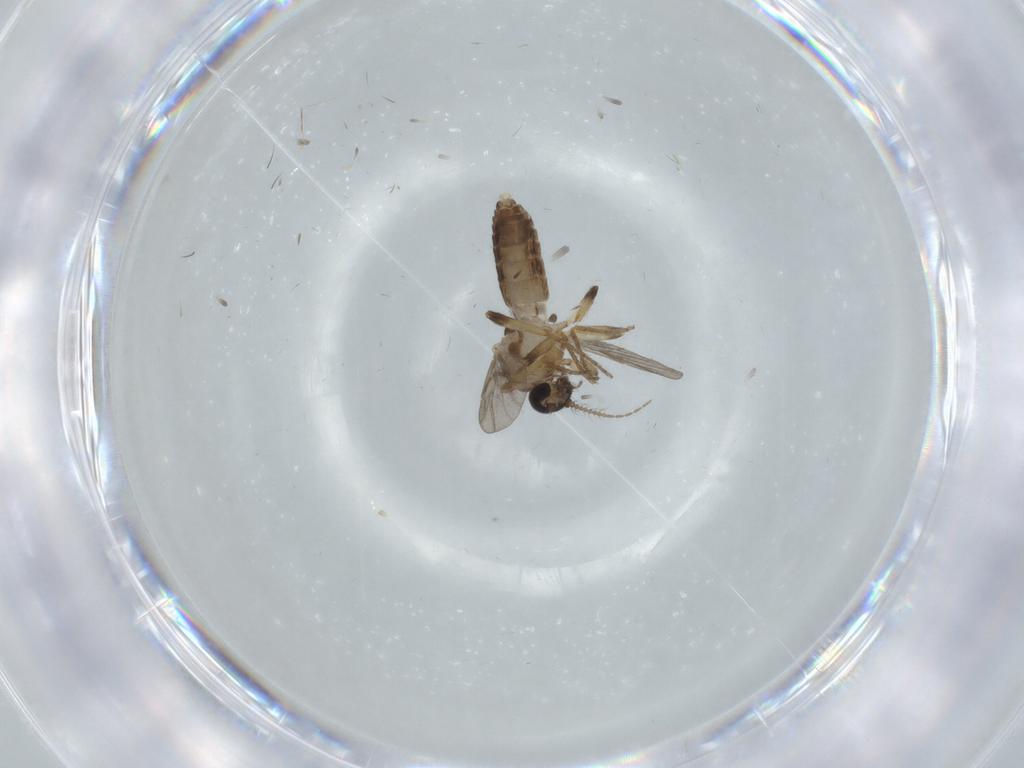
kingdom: Animalia
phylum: Arthropoda
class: Insecta
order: Diptera
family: Ceratopogonidae
